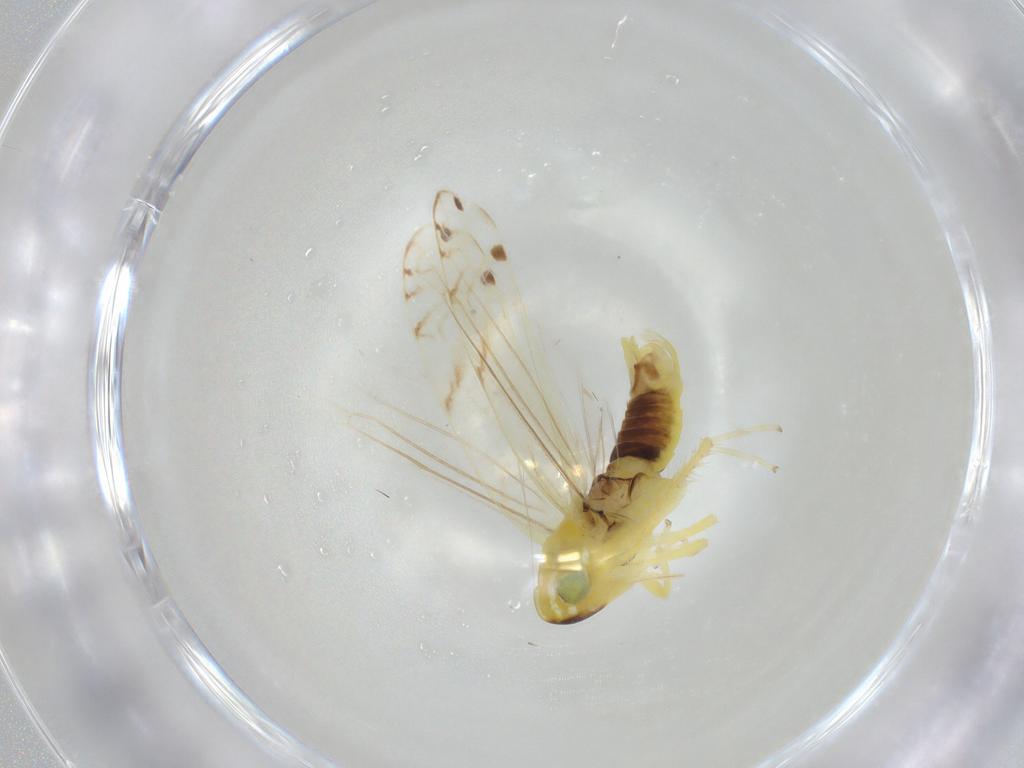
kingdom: Animalia
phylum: Arthropoda
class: Insecta
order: Hemiptera
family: Cicadellidae
